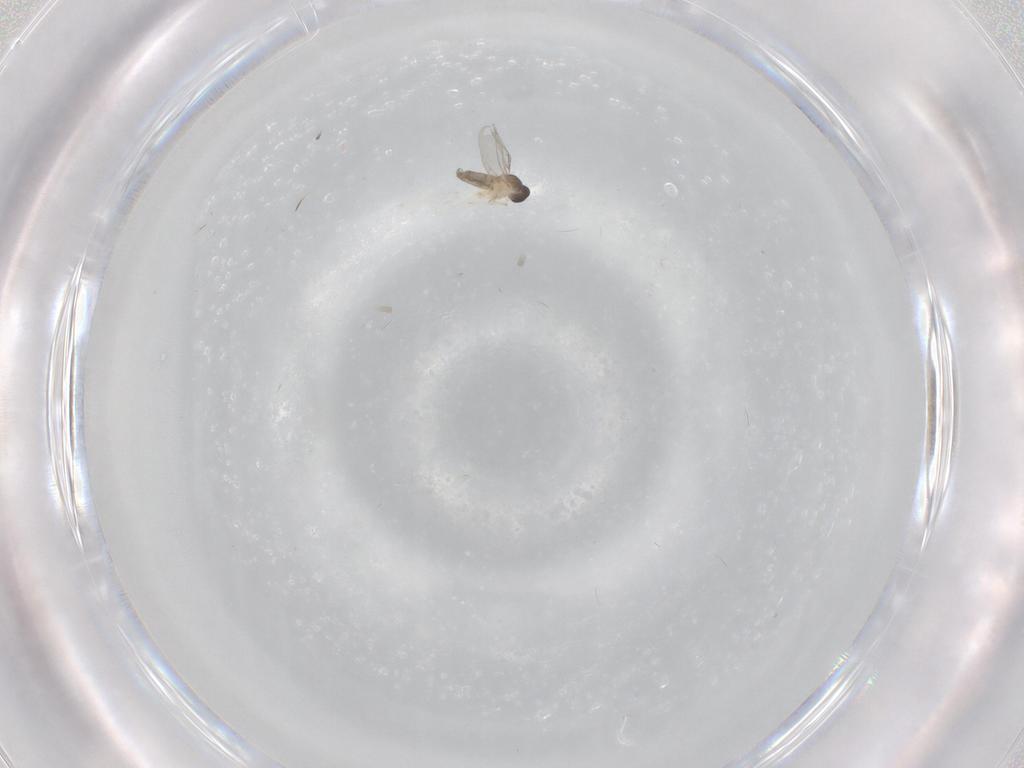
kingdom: Animalia
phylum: Arthropoda
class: Insecta
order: Diptera
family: Cecidomyiidae
